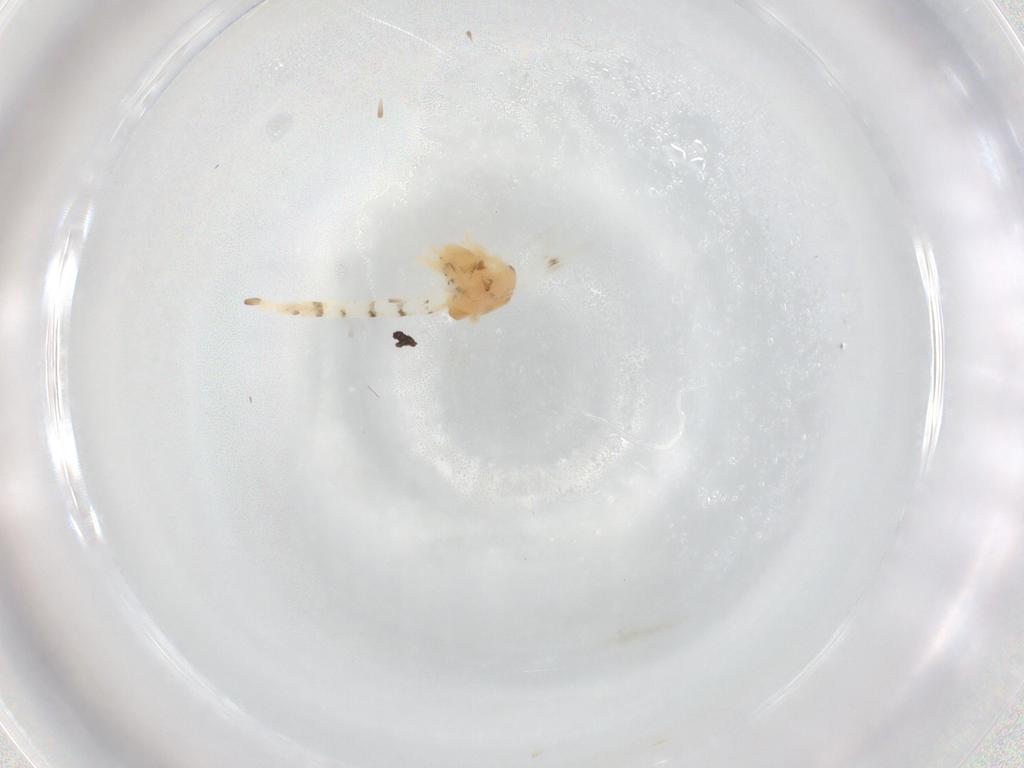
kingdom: Animalia
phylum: Arthropoda
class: Insecta
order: Diptera
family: Chironomidae
